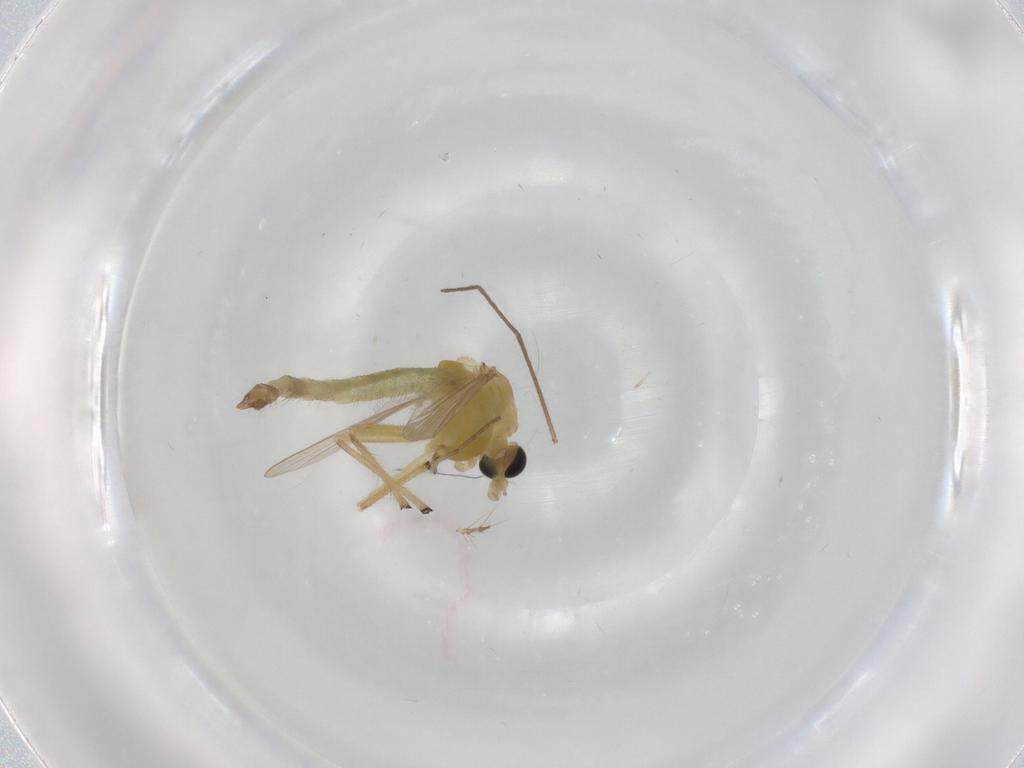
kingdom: Animalia
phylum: Arthropoda
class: Insecta
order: Diptera
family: Chironomidae
